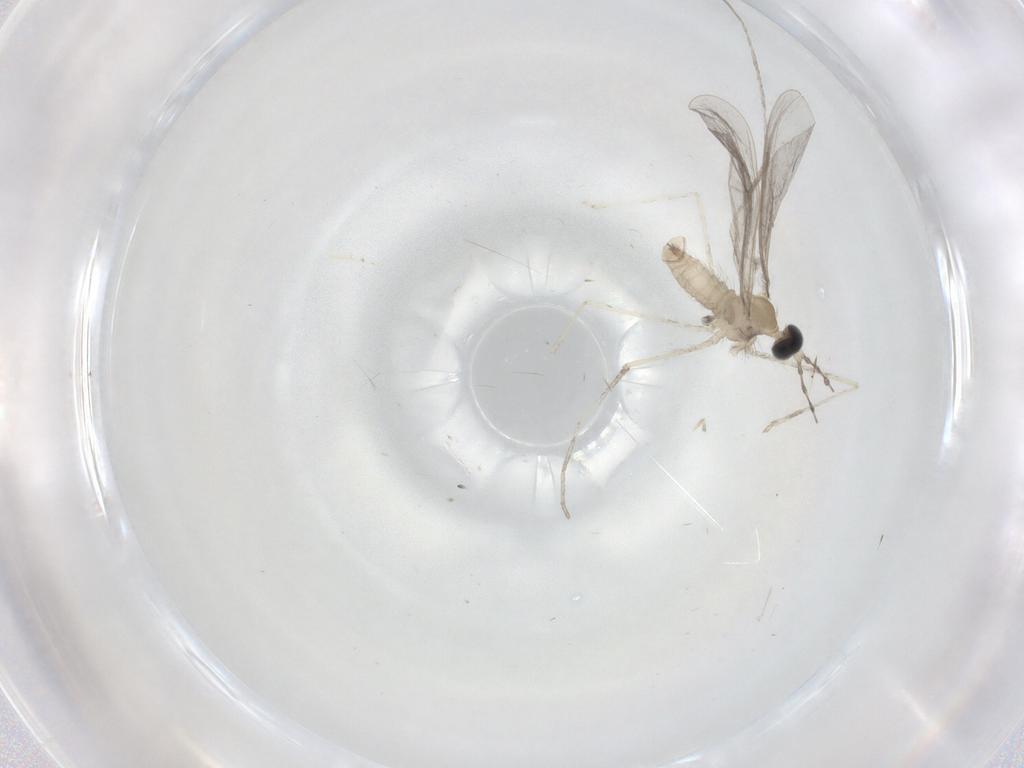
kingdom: Animalia
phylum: Arthropoda
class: Insecta
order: Diptera
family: Cecidomyiidae
